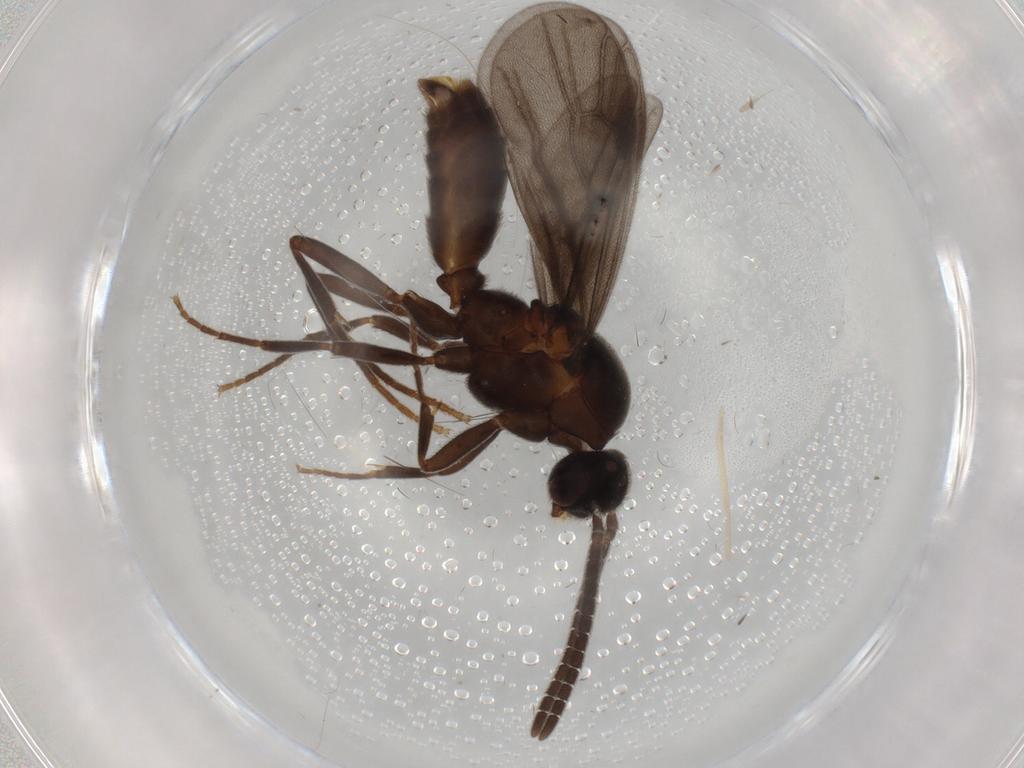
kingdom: Animalia
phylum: Arthropoda
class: Insecta
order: Hymenoptera
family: Formicidae
